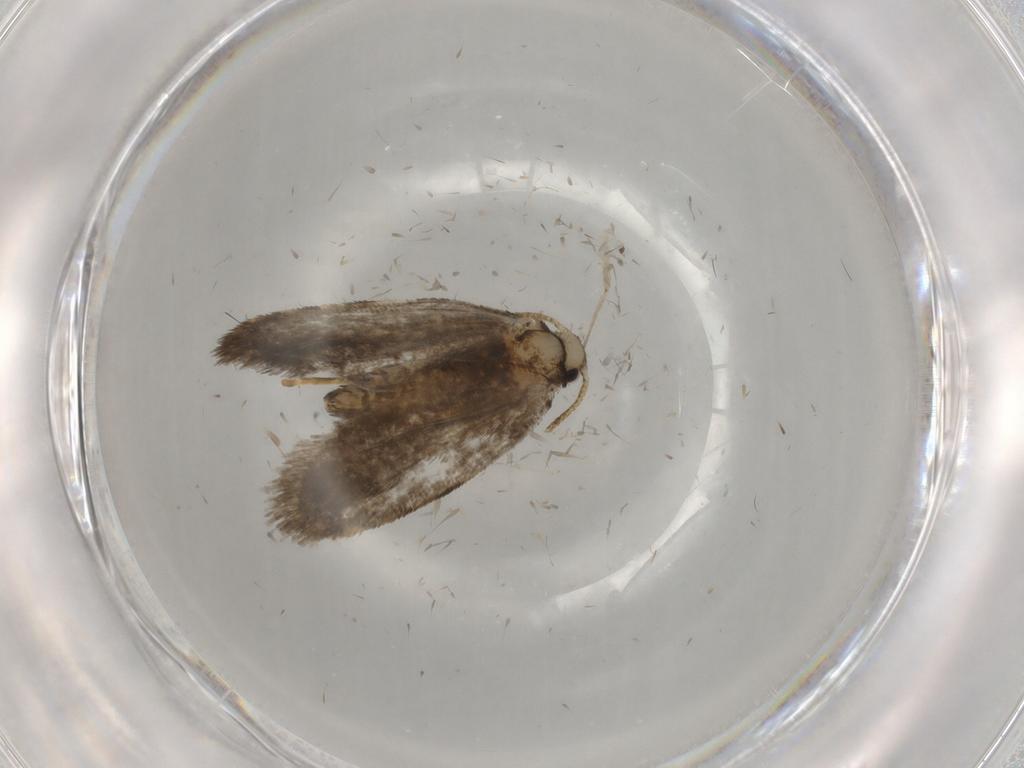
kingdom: Animalia
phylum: Arthropoda
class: Insecta
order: Lepidoptera
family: Psychidae
